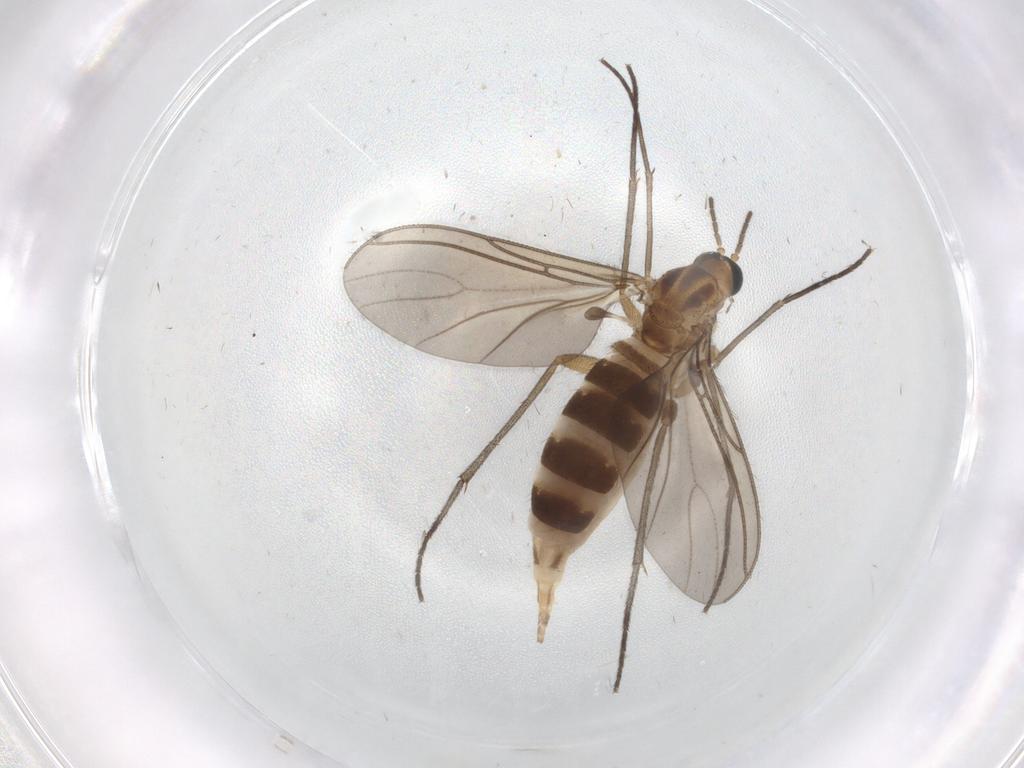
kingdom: Animalia
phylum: Arthropoda
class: Insecta
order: Diptera
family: Sciaridae
